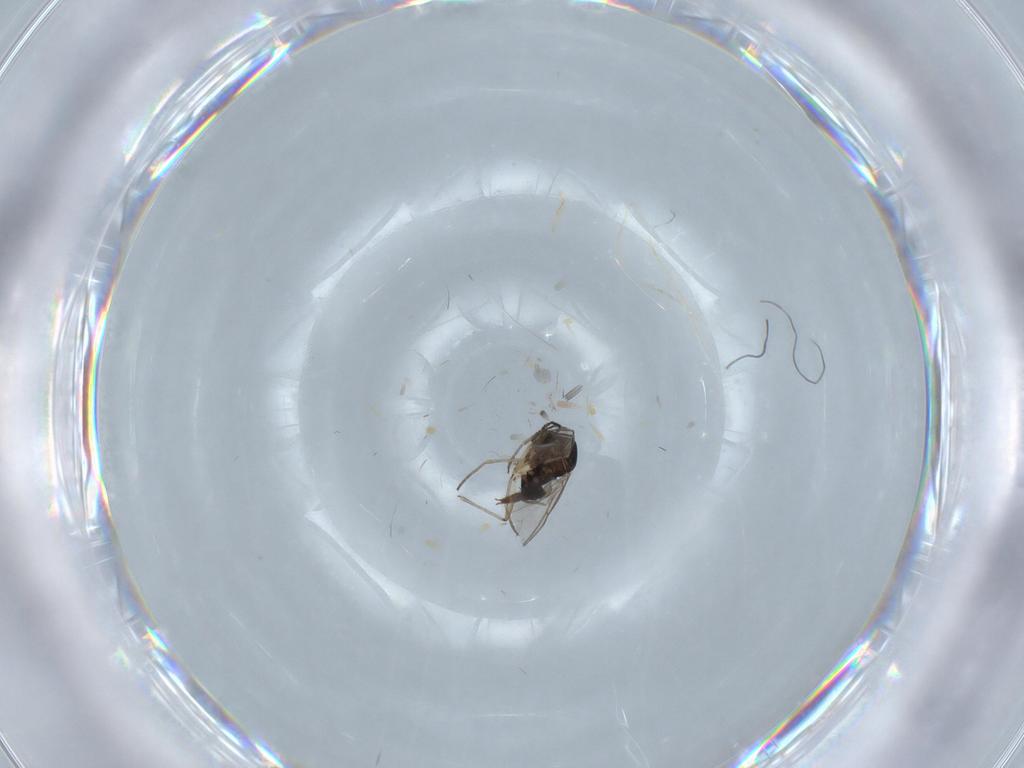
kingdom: Animalia
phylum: Arthropoda
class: Insecta
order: Diptera
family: Sciaridae
